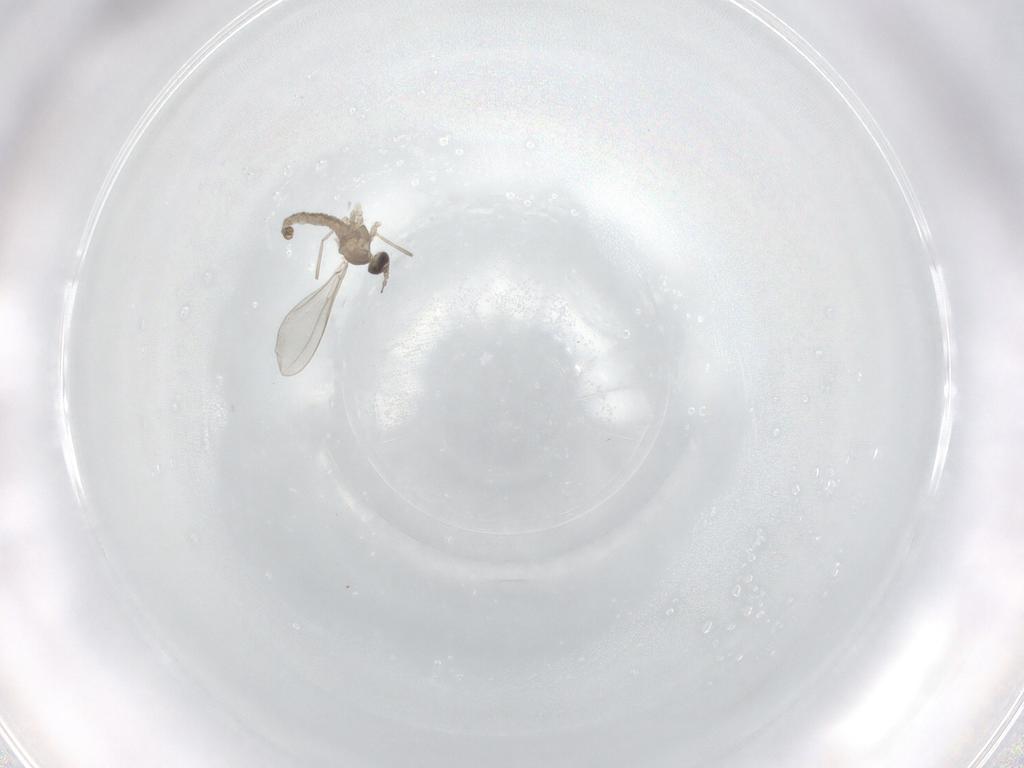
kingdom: Animalia
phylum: Arthropoda
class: Insecta
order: Diptera
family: Cecidomyiidae
